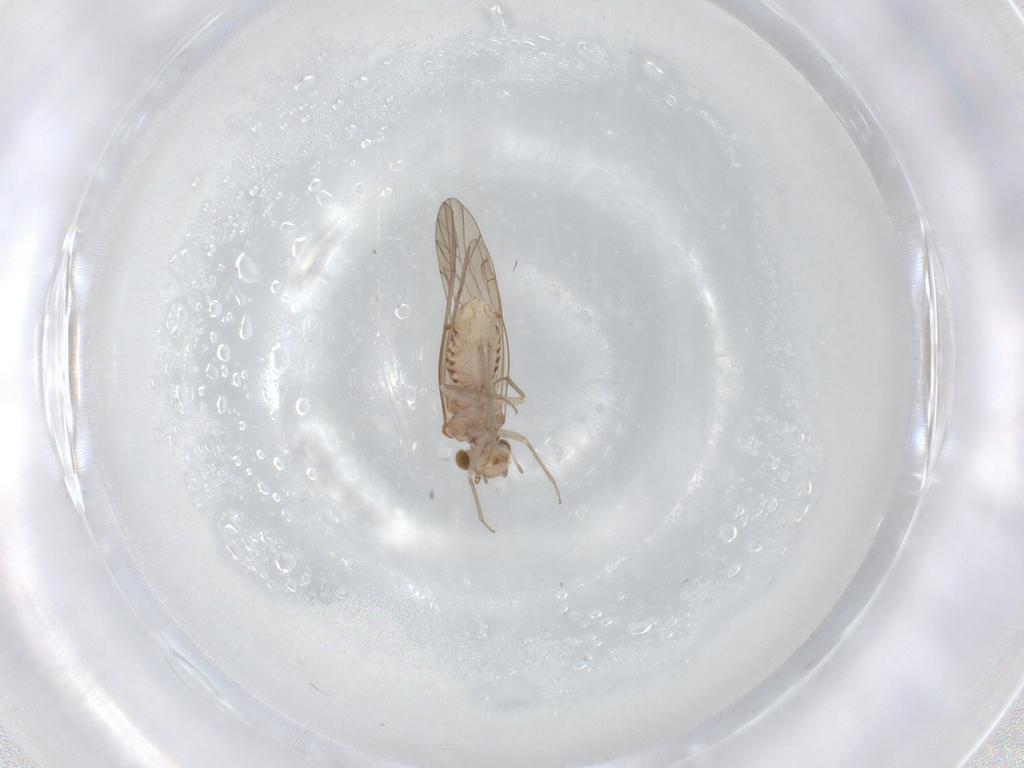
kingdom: Animalia
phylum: Arthropoda
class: Insecta
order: Psocodea
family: Lachesillidae
